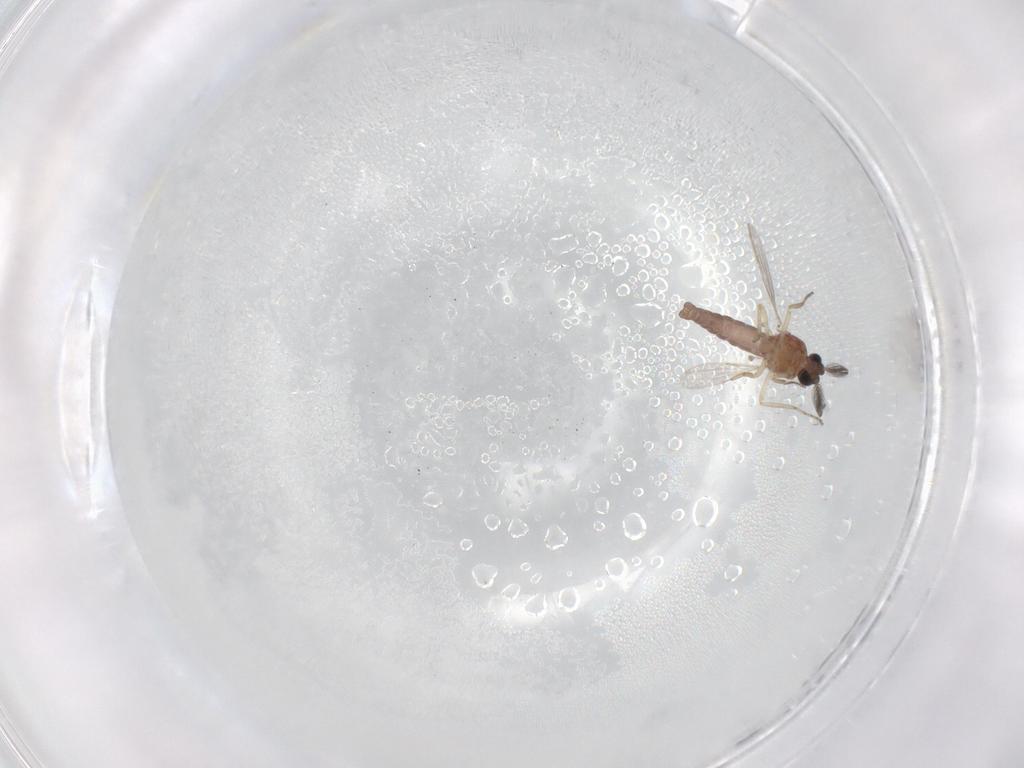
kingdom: Animalia
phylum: Arthropoda
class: Insecta
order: Diptera
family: Ceratopogonidae
